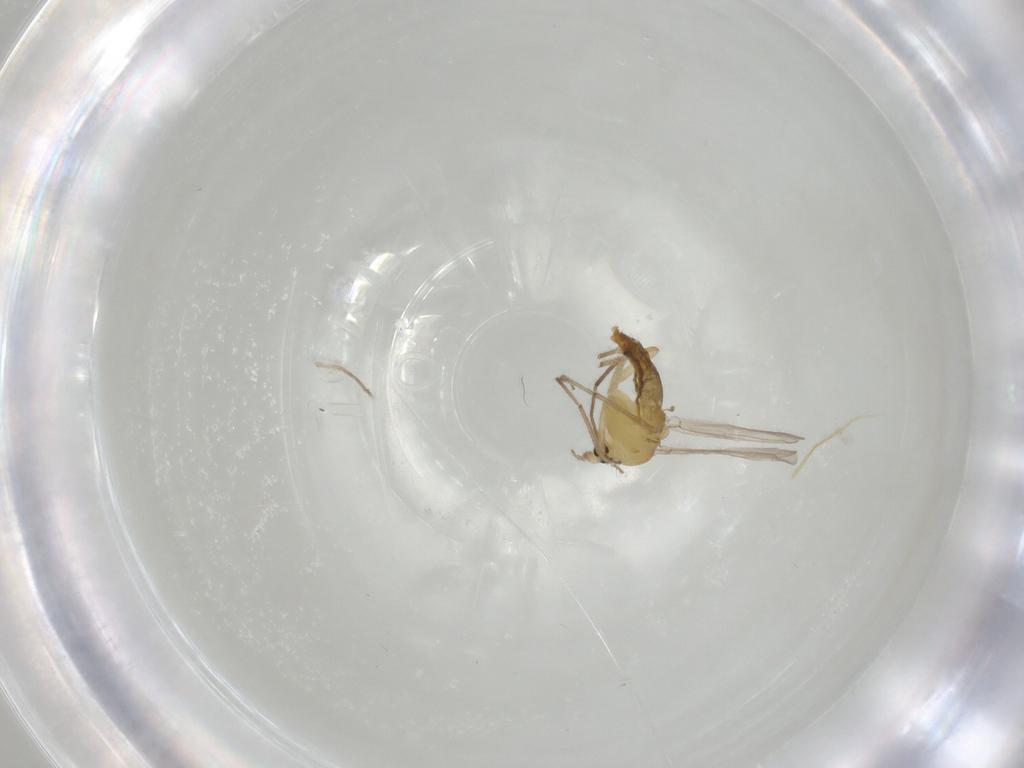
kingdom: Animalia
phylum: Arthropoda
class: Insecta
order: Diptera
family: Chironomidae
